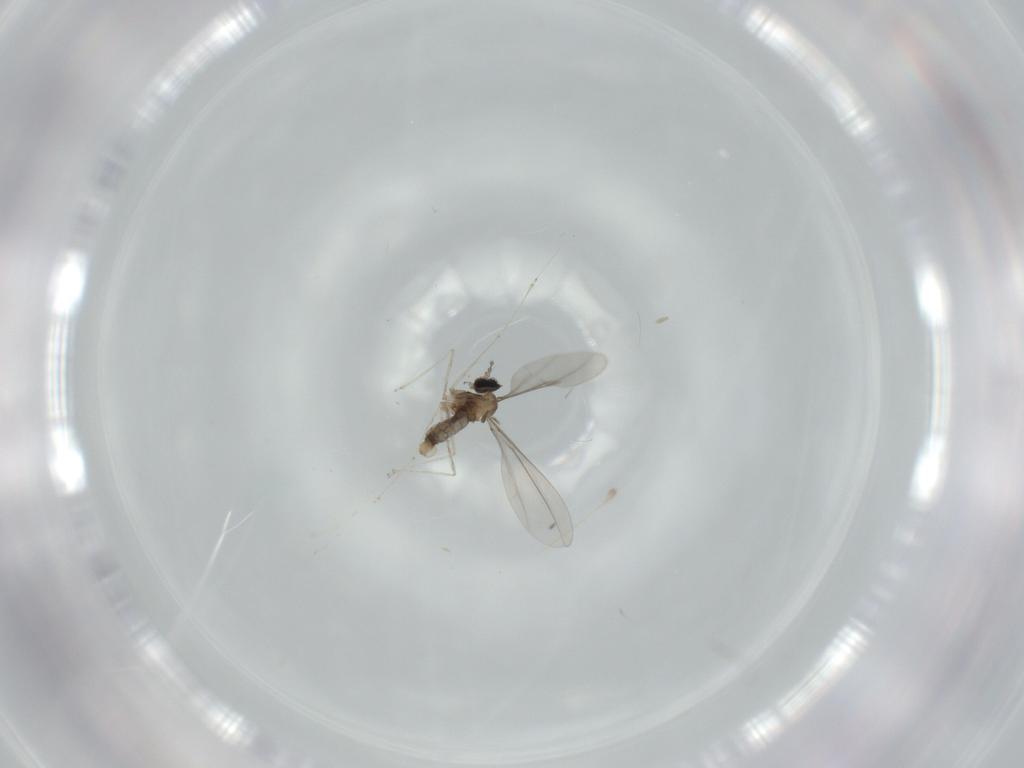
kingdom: Animalia
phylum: Arthropoda
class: Insecta
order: Diptera
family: Cecidomyiidae
